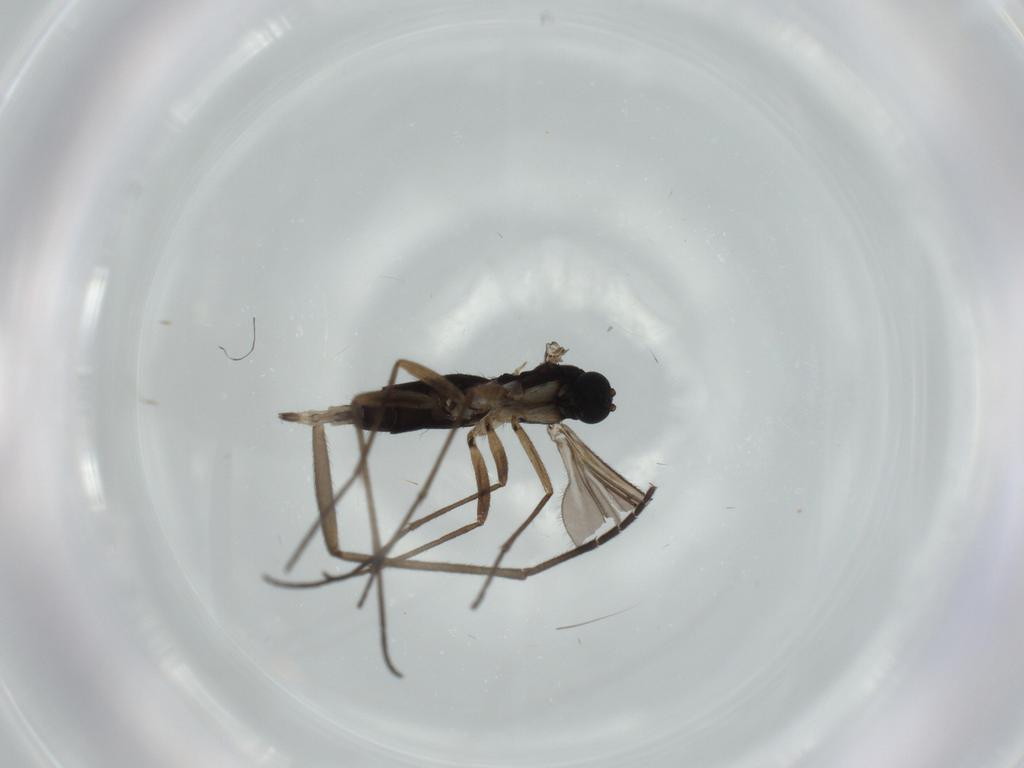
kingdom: Animalia
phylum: Arthropoda
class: Insecta
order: Diptera
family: Sciaridae
